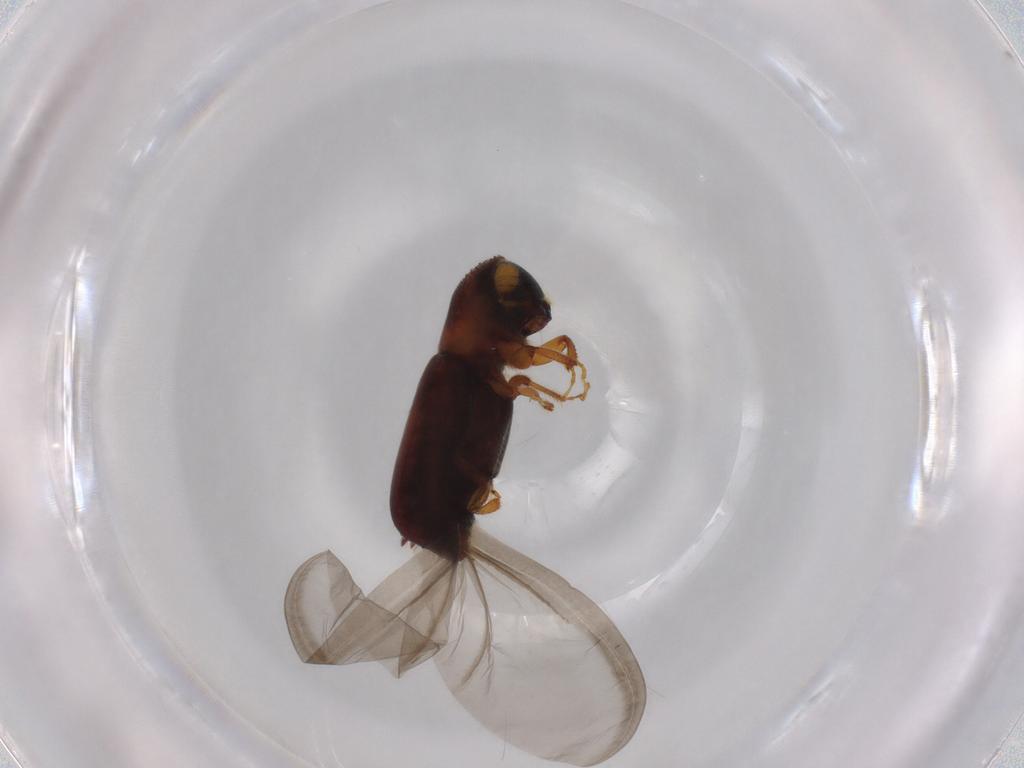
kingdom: Animalia
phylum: Arthropoda
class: Insecta
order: Coleoptera
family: Curculionidae
